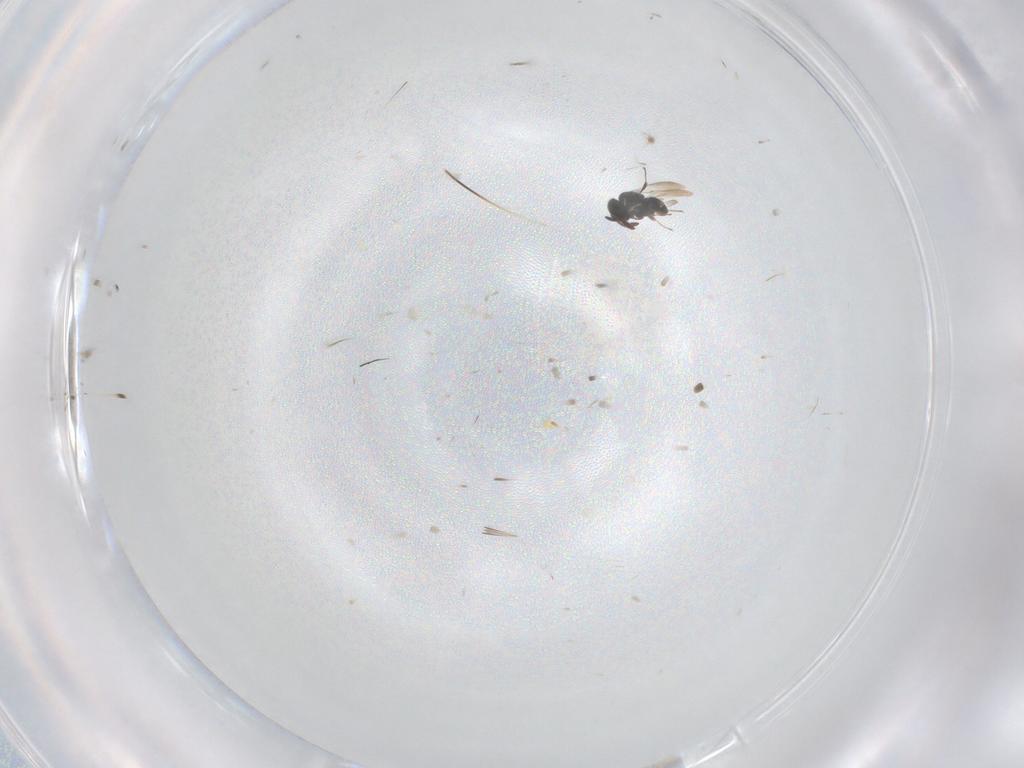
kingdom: Animalia
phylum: Arthropoda
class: Insecta
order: Hymenoptera
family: Scelionidae
